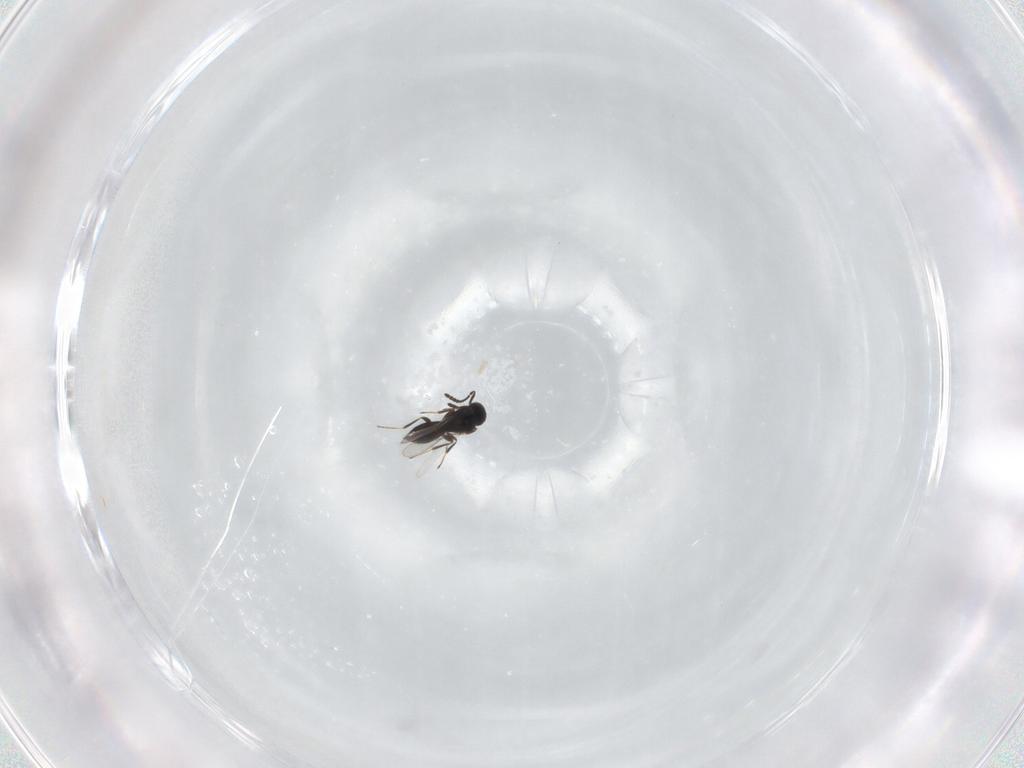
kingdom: Animalia
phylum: Arthropoda
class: Insecta
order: Hymenoptera
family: Scelionidae
